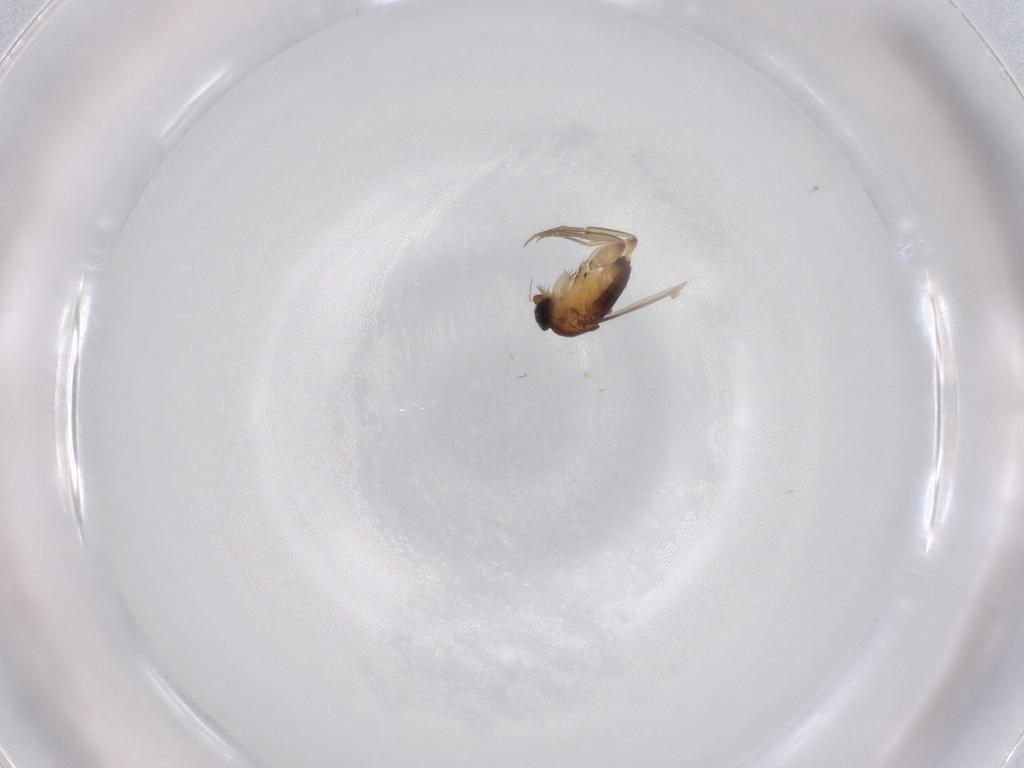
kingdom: Animalia
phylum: Arthropoda
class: Insecta
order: Diptera
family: Phoridae
